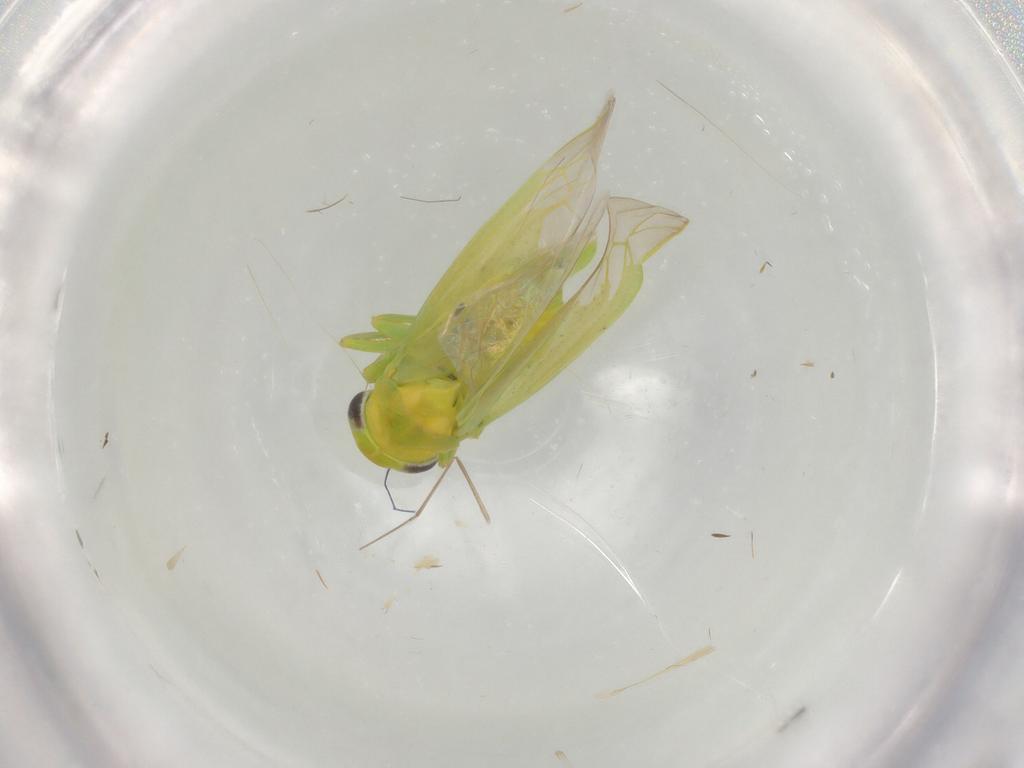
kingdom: Animalia
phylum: Arthropoda
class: Insecta
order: Hemiptera
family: Cicadellidae
